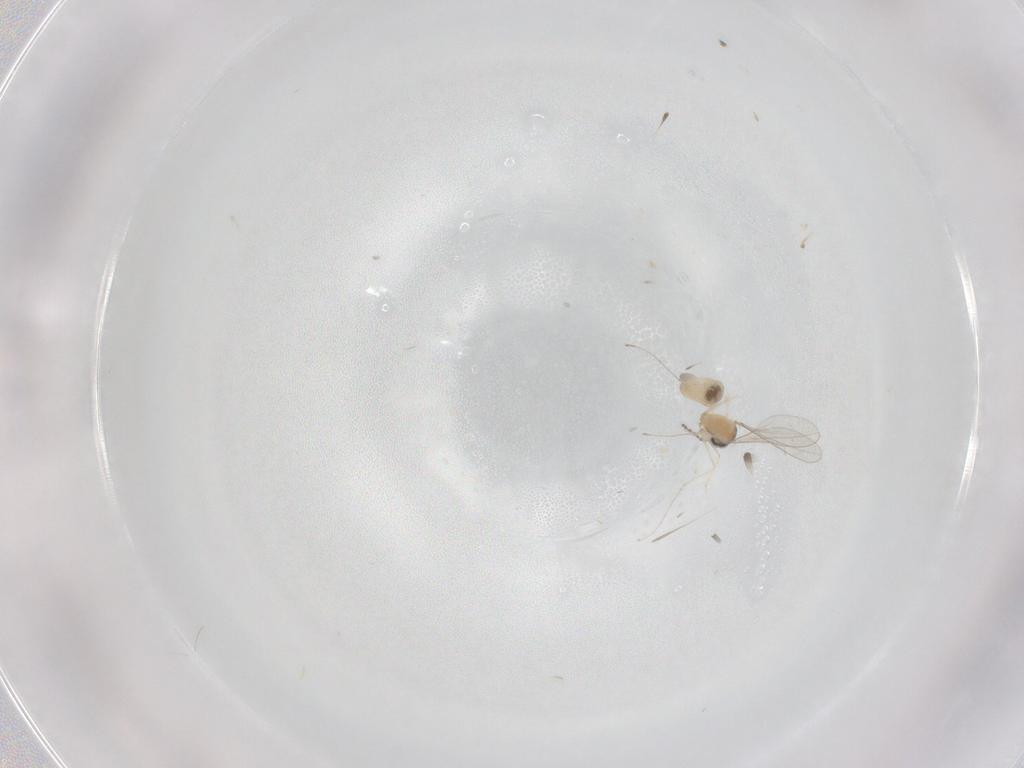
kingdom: Animalia
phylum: Arthropoda
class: Insecta
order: Diptera
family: Cecidomyiidae
